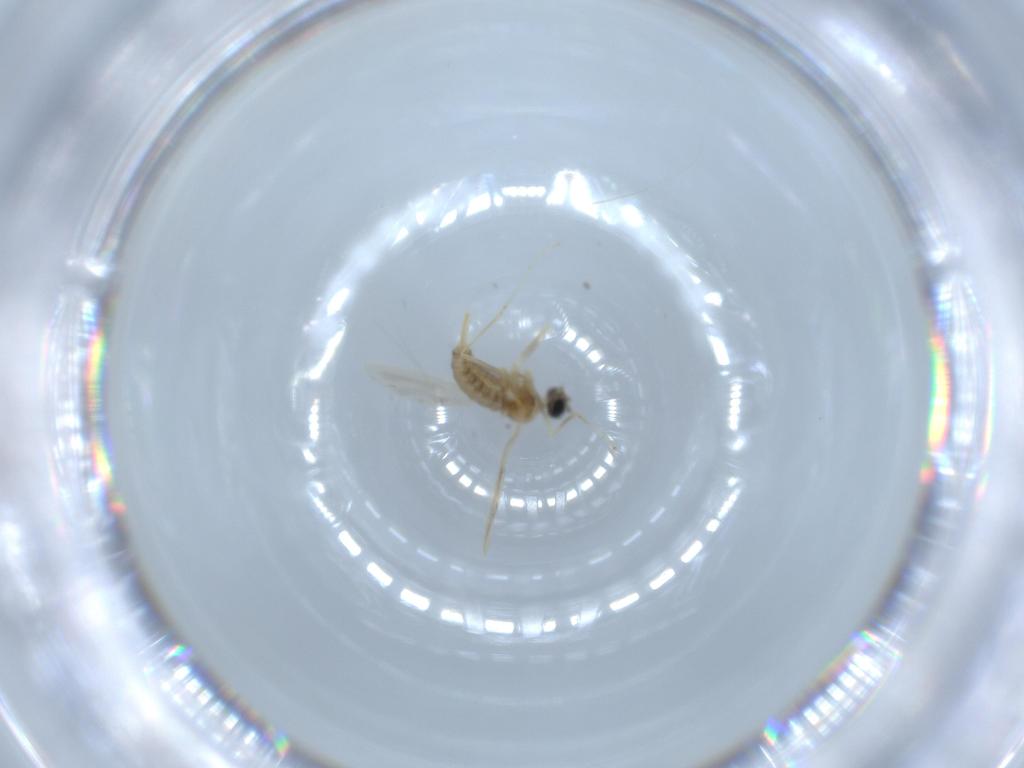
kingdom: Animalia
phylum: Arthropoda
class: Insecta
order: Diptera
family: Cecidomyiidae
